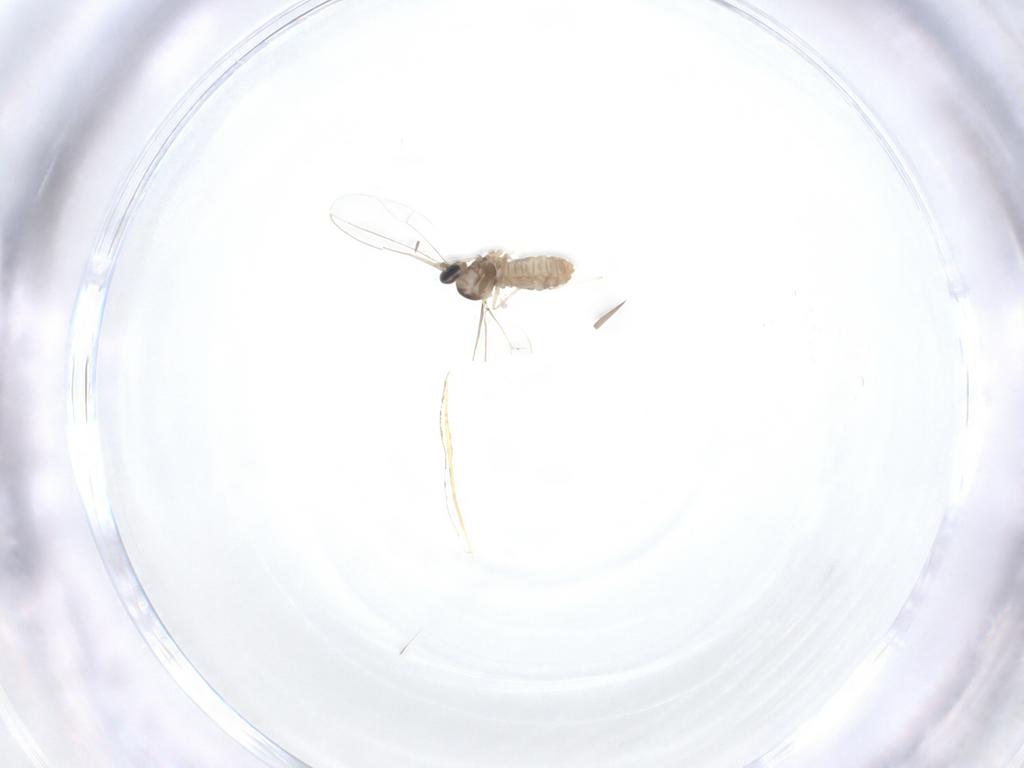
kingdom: Animalia
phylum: Arthropoda
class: Insecta
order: Diptera
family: Cecidomyiidae
